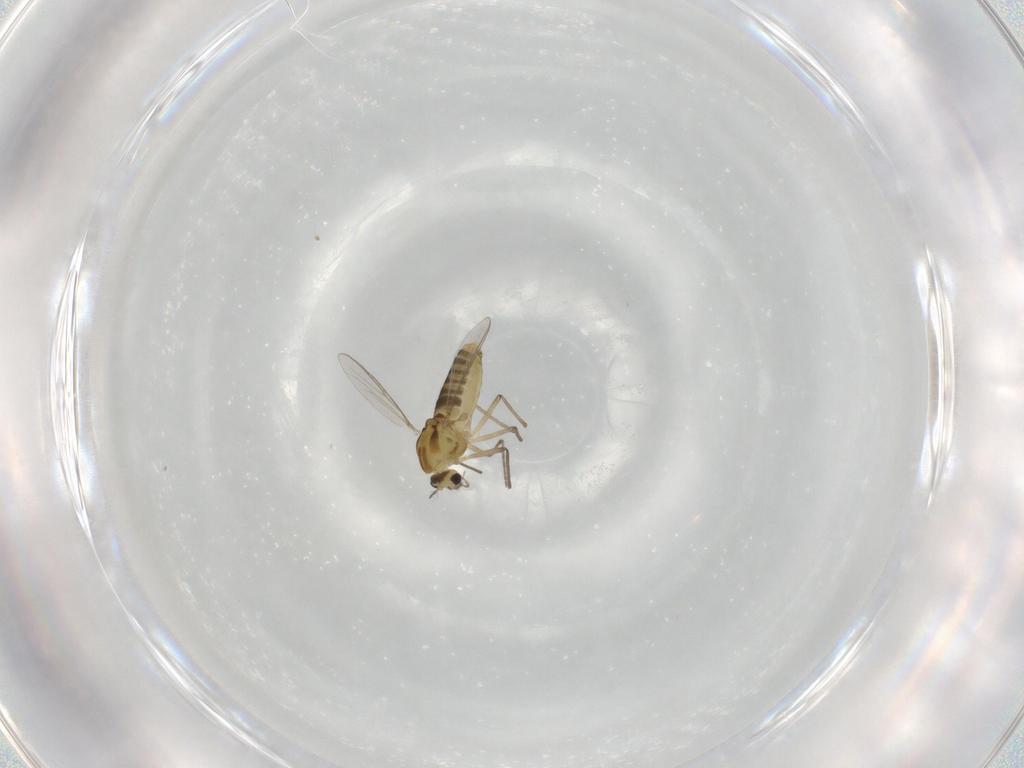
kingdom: Animalia
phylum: Arthropoda
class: Insecta
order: Diptera
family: Chironomidae
